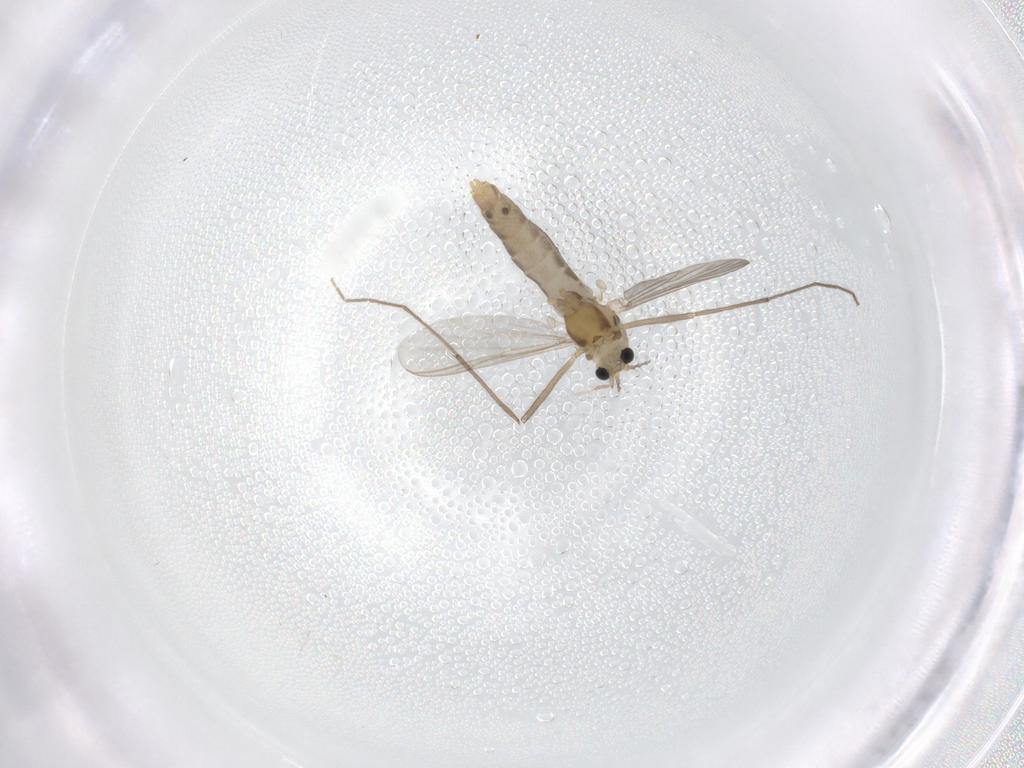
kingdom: Animalia
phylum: Arthropoda
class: Insecta
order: Diptera
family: Chironomidae
